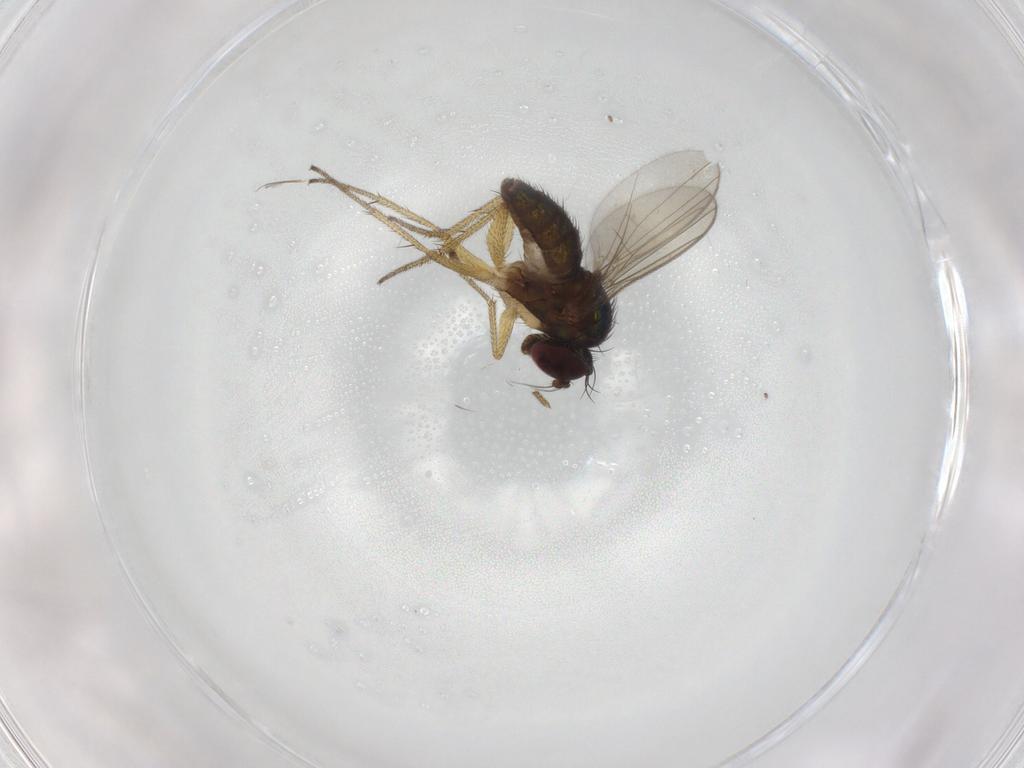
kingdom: Animalia
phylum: Arthropoda
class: Insecta
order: Diptera
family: Dolichopodidae
